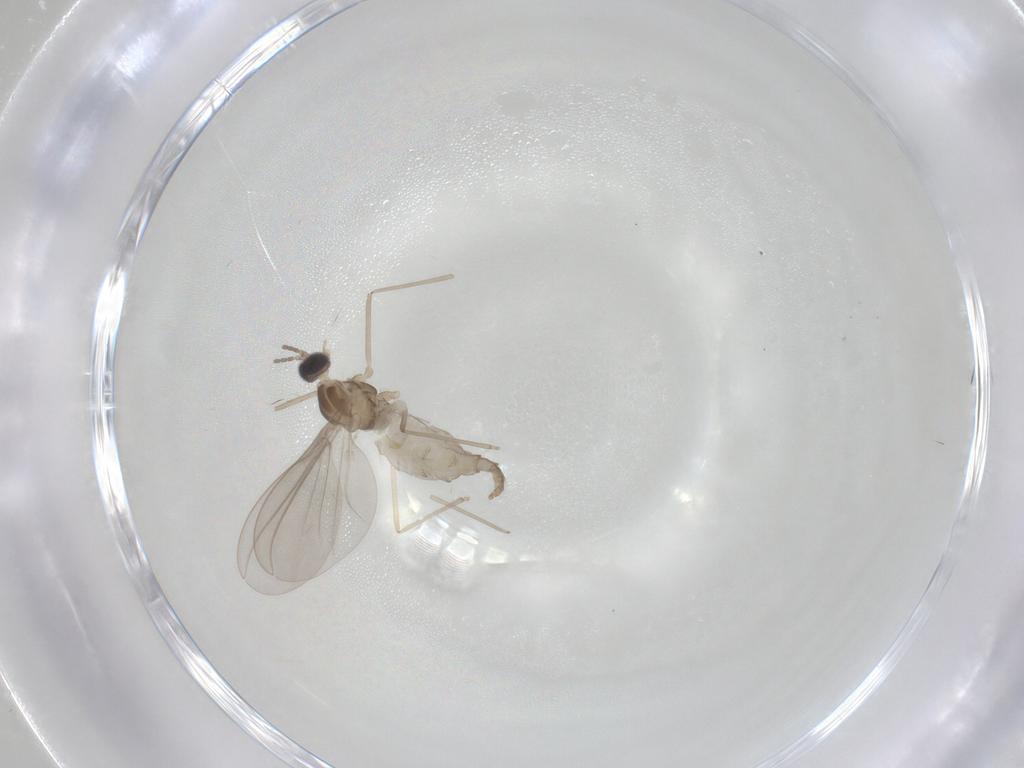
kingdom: Animalia
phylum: Arthropoda
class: Insecta
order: Diptera
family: Cecidomyiidae
